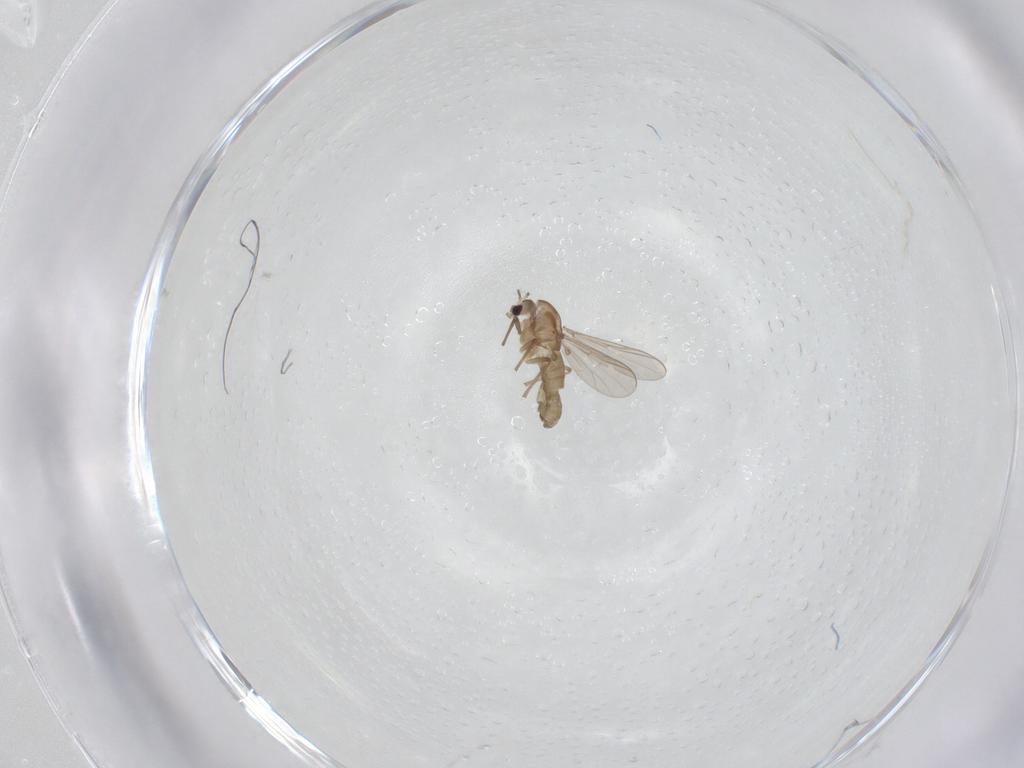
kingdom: Animalia
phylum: Arthropoda
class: Insecta
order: Diptera
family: Chironomidae
